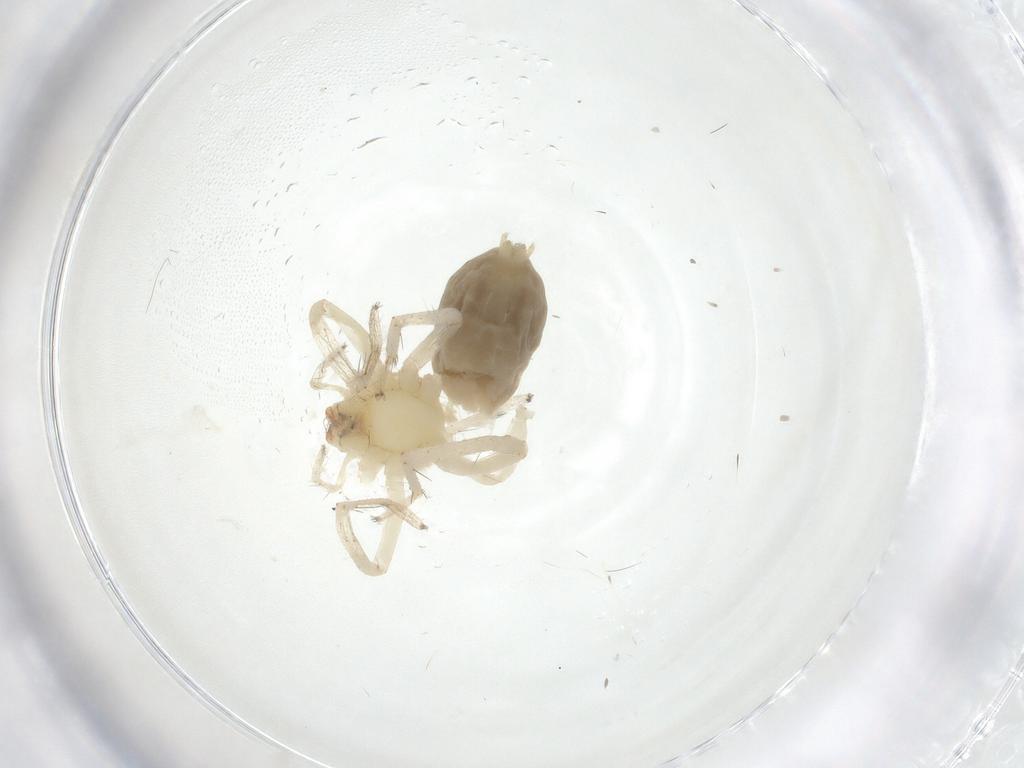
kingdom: Animalia
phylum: Arthropoda
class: Arachnida
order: Araneae
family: Anyphaenidae
